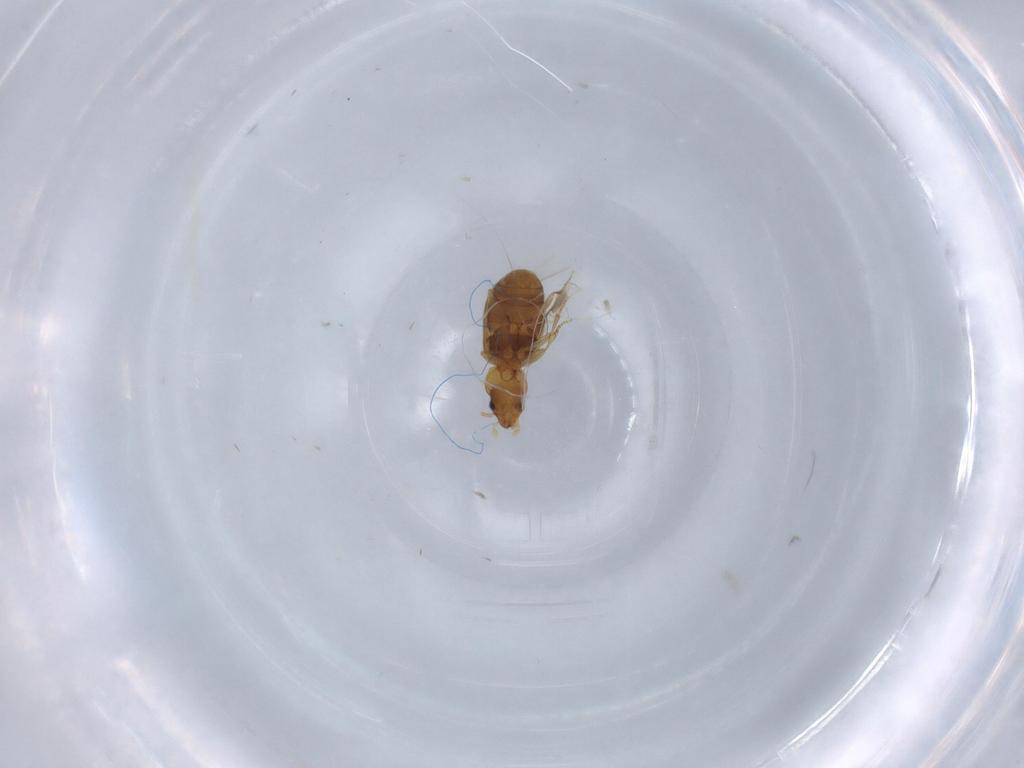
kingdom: Animalia
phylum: Arthropoda
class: Insecta
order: Coleoptera
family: Carabidae
